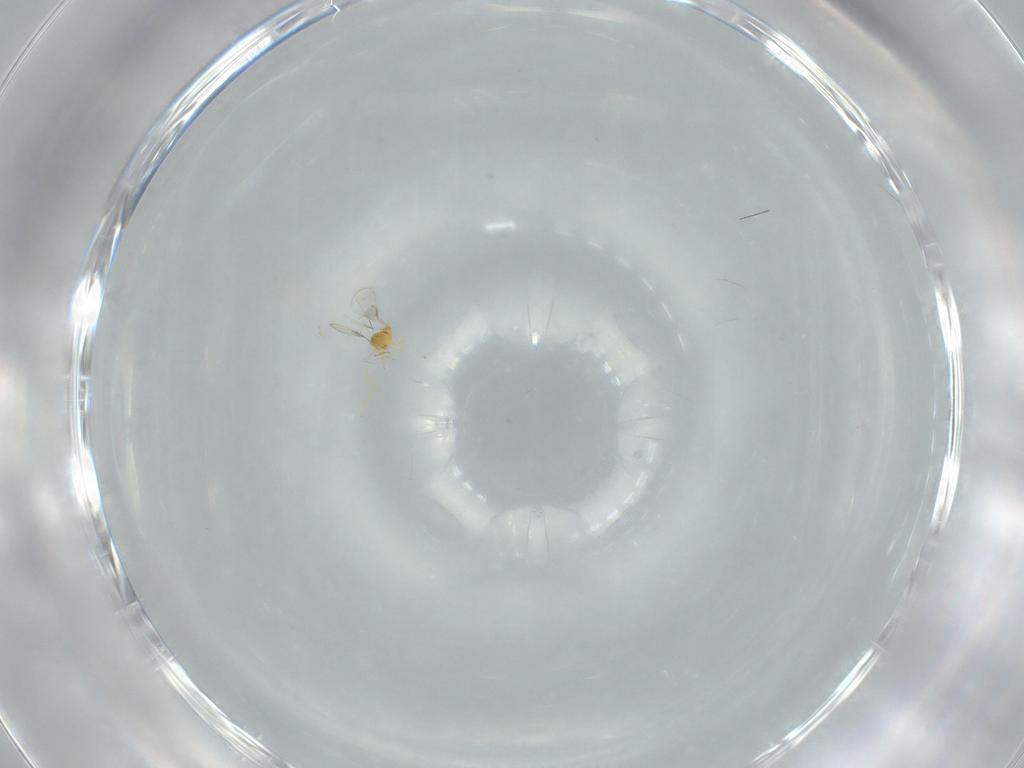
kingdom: Animalia
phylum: Arthropoda
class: Insecta
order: Hymenoptera
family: Trichogrammatidae
